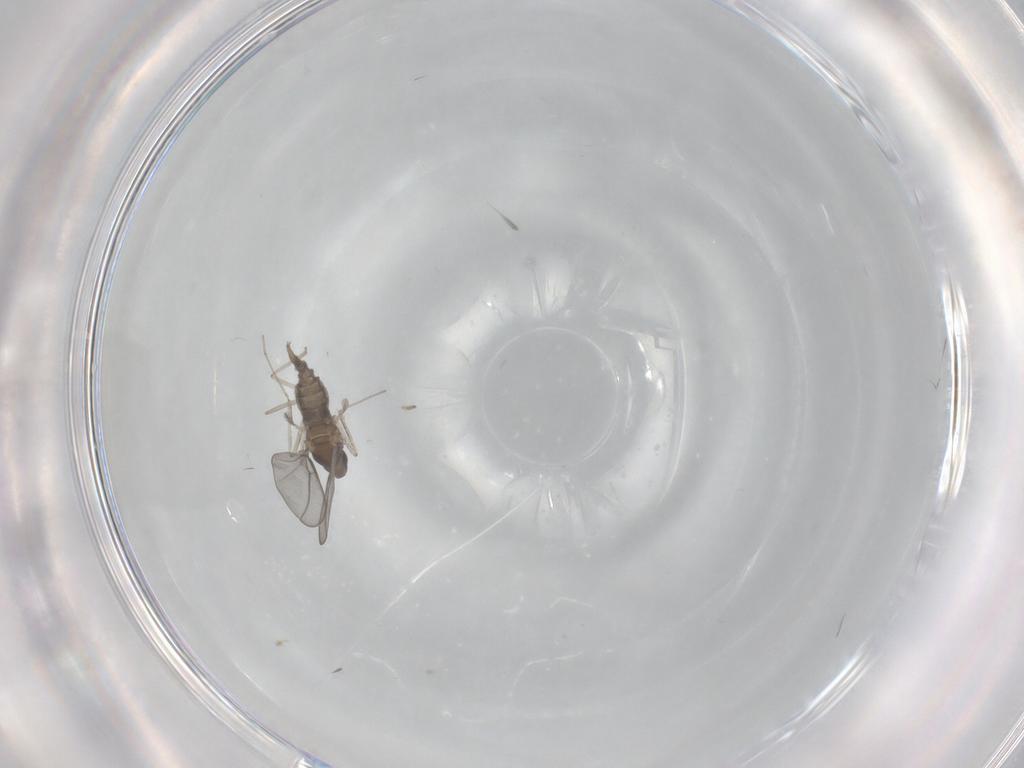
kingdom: Animalia
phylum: Arthropoda
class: Insecta
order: Diptera
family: Cecidomyiidae
